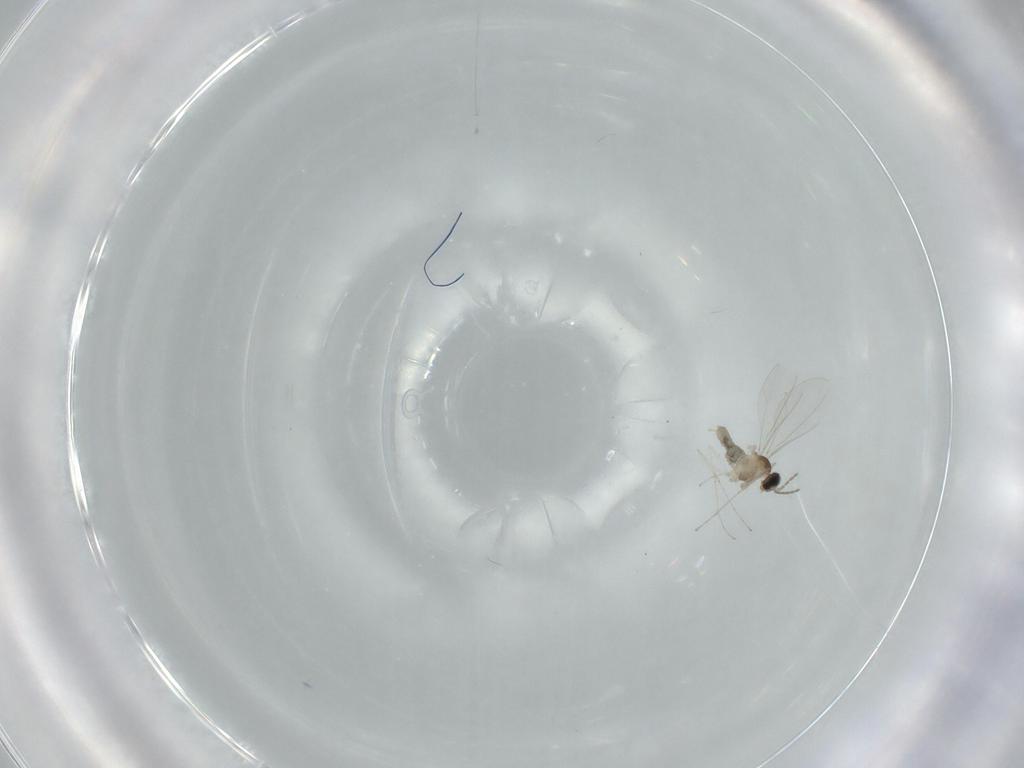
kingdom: Animalia
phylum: Arthropoda
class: Insecta
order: Diptera
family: Cecidomyiidae
